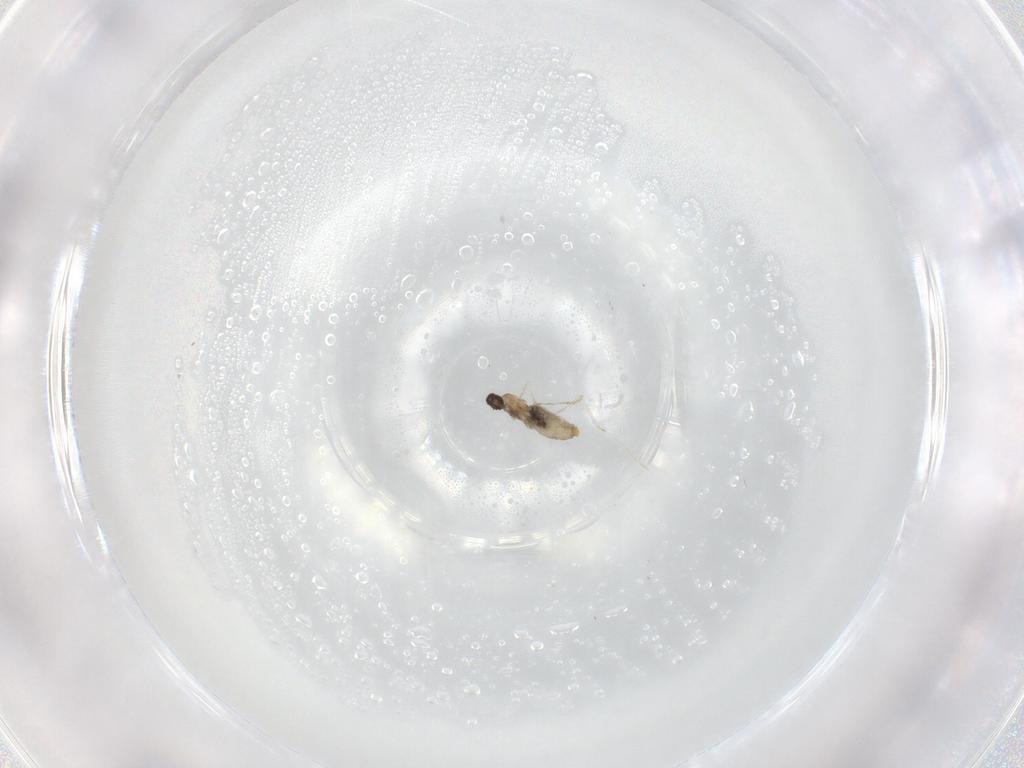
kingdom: Animalia
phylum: Arthropoda
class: Insecta
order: Diptera
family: Cecidomyiidae
